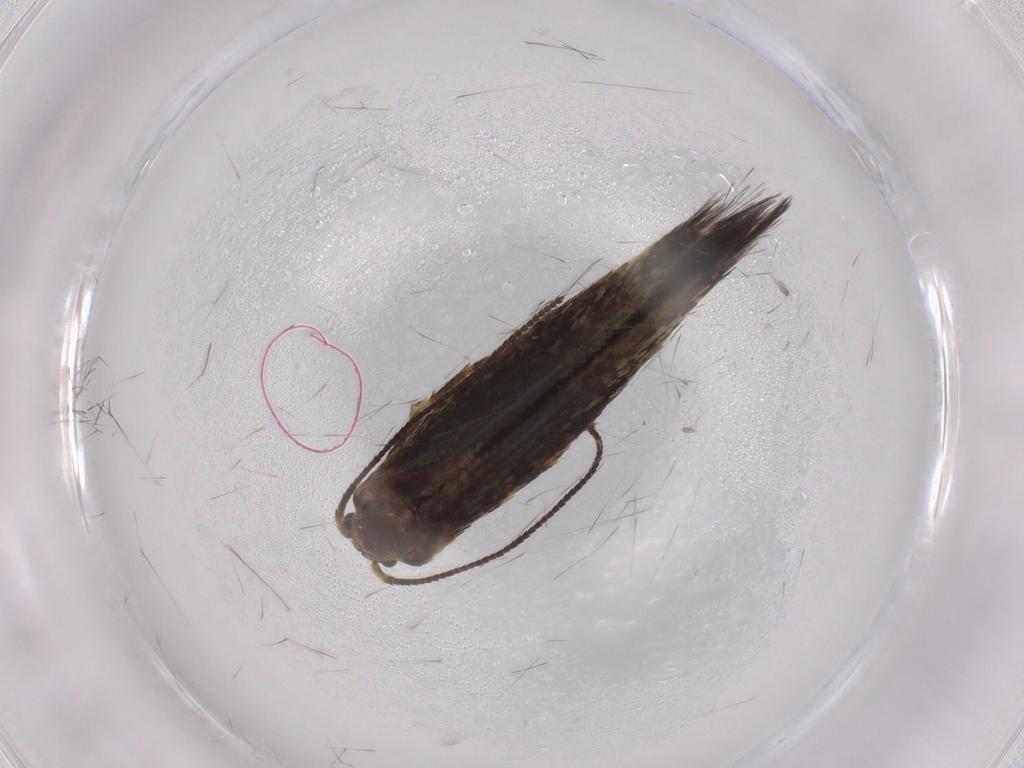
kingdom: Animalia
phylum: Arthropoda
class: Insecta
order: Lepidoptera
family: Nepticulidae
